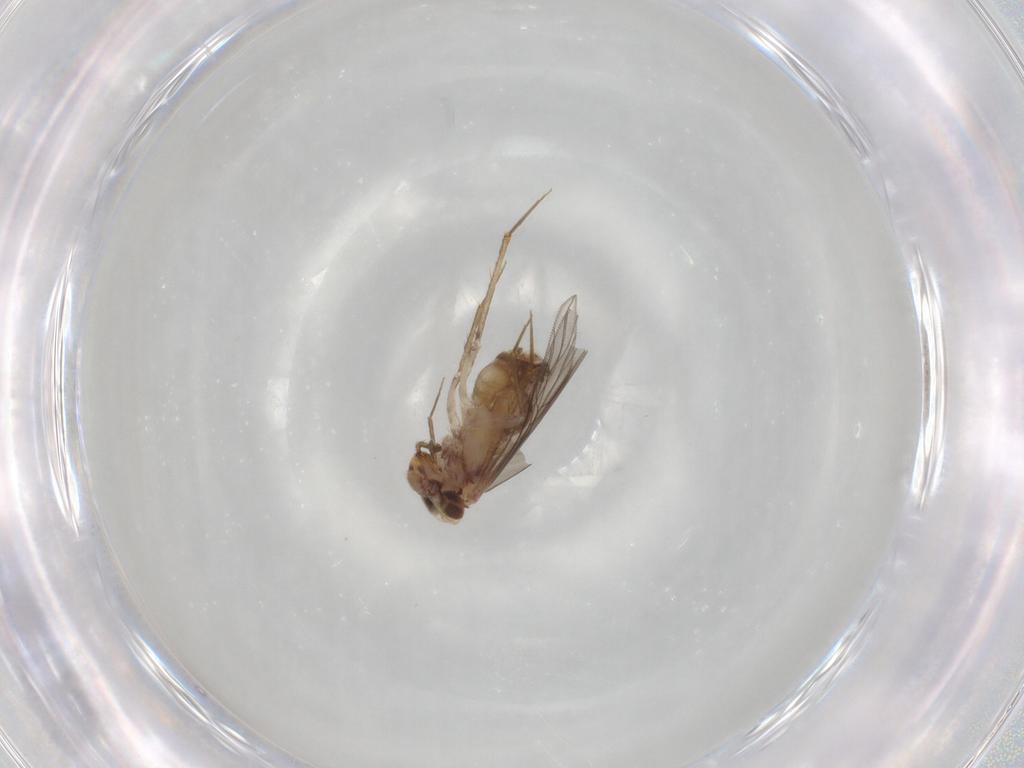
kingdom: Animalia
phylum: Arthropoda
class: Insecta
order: Psocodea
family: Lepidopsocidae
